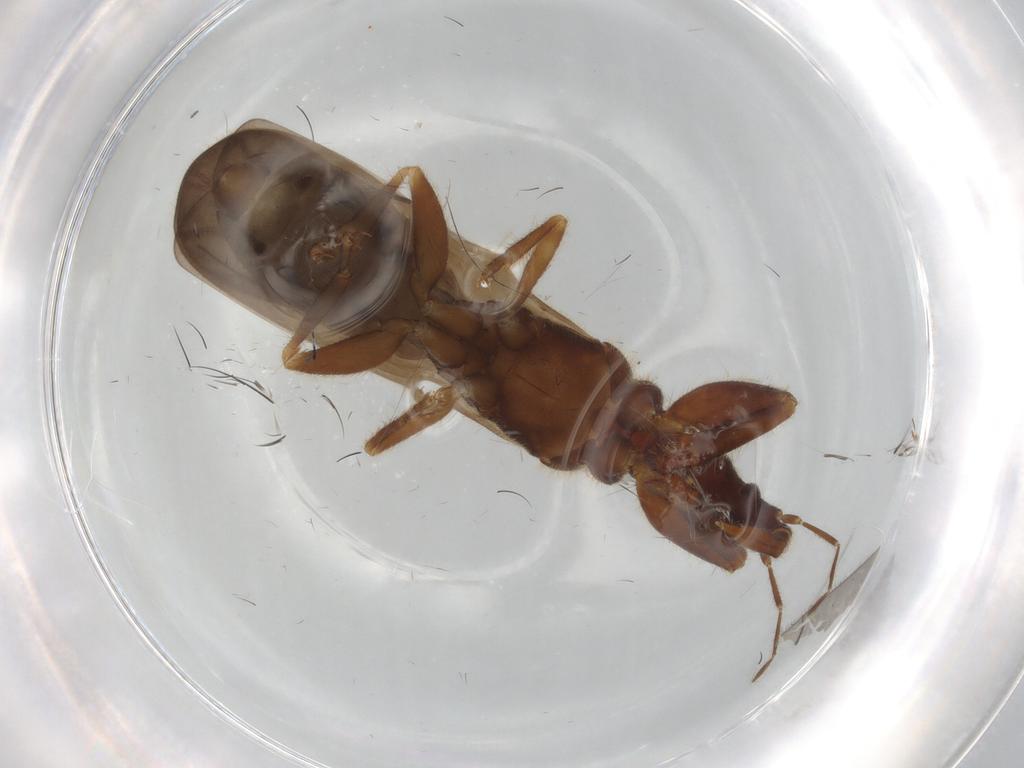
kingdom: Animalia
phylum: Arthropoda
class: Insecta
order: Hemiptera
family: Enicocephalidae
